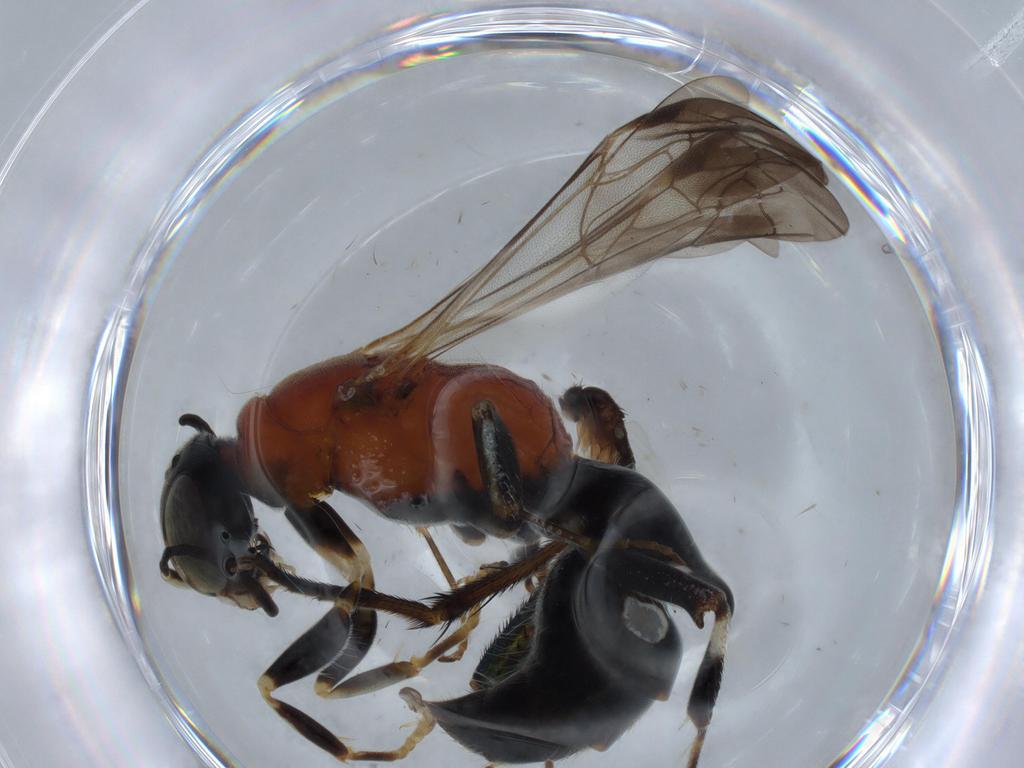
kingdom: Animalia
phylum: Arthropoda
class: Insecta
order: Hymenoptera
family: Bembicidae
